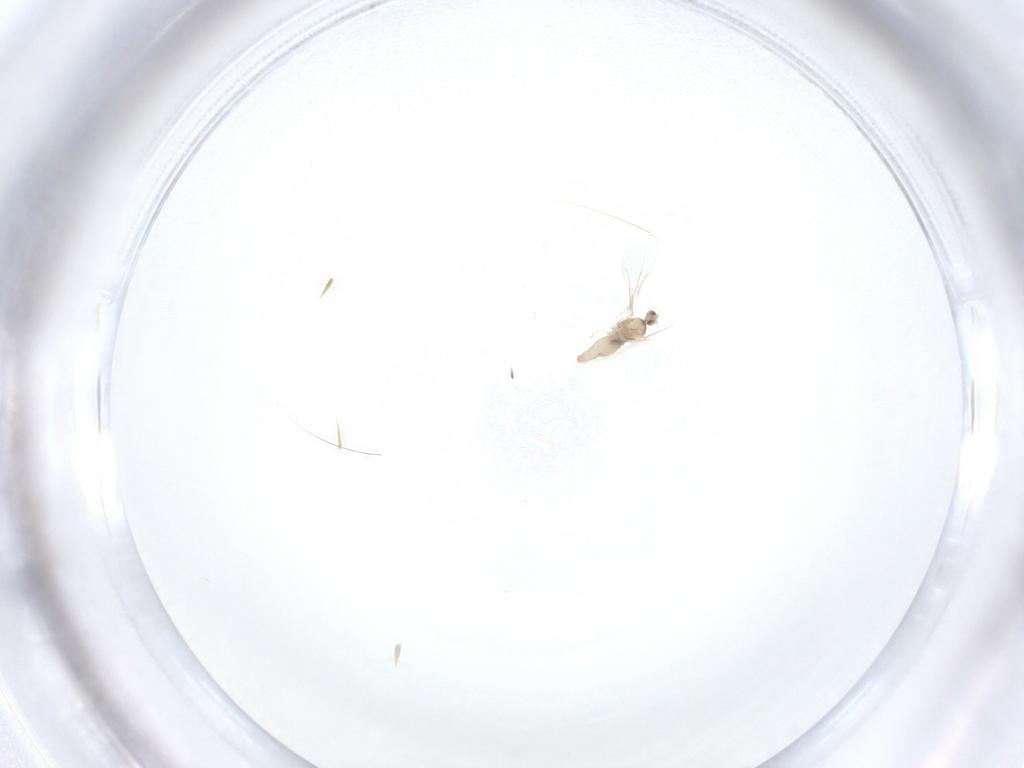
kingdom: Animalia
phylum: Arthropoda
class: Insecta
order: Diptera
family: Cecidomyiidae
